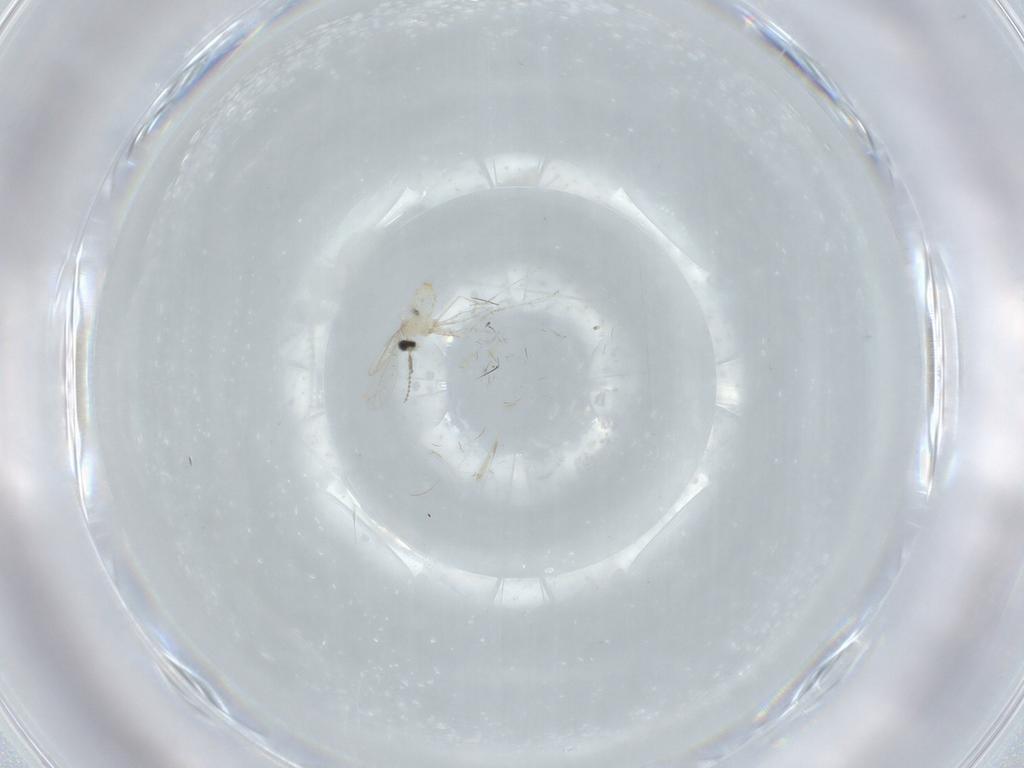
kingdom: Animalia
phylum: Arthropoda
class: Insecta
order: Diptera
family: Cecidomyiidae
